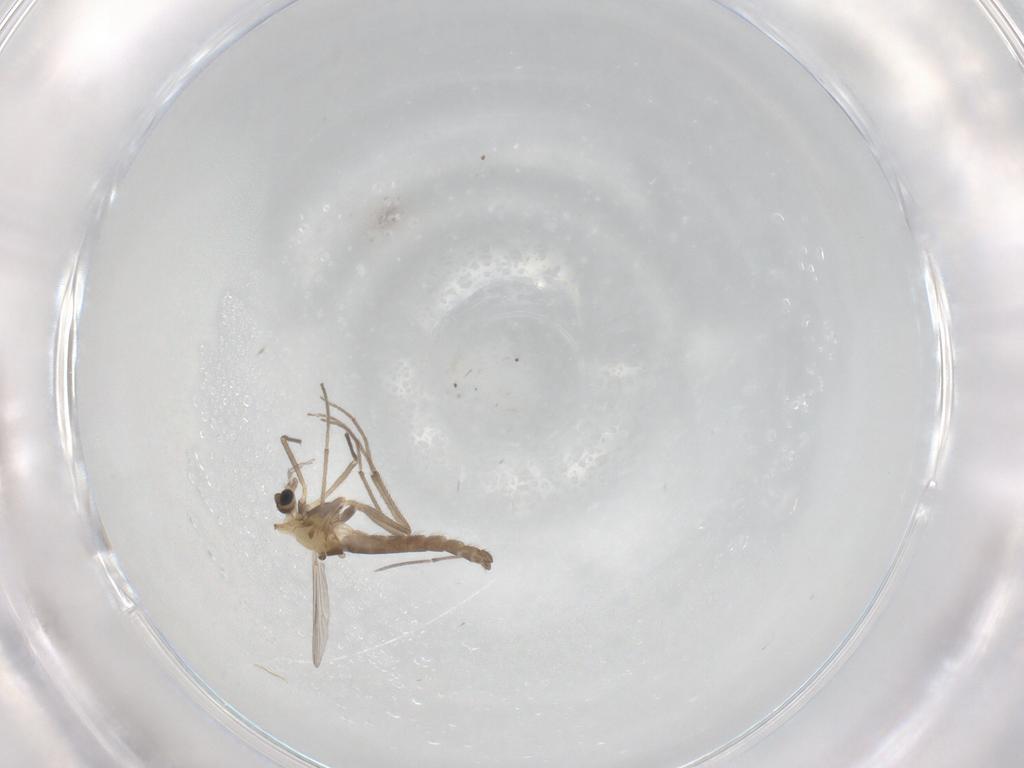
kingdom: Animalia
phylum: Arthropoda
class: Insecta
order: Diptera
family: Chironomidae
